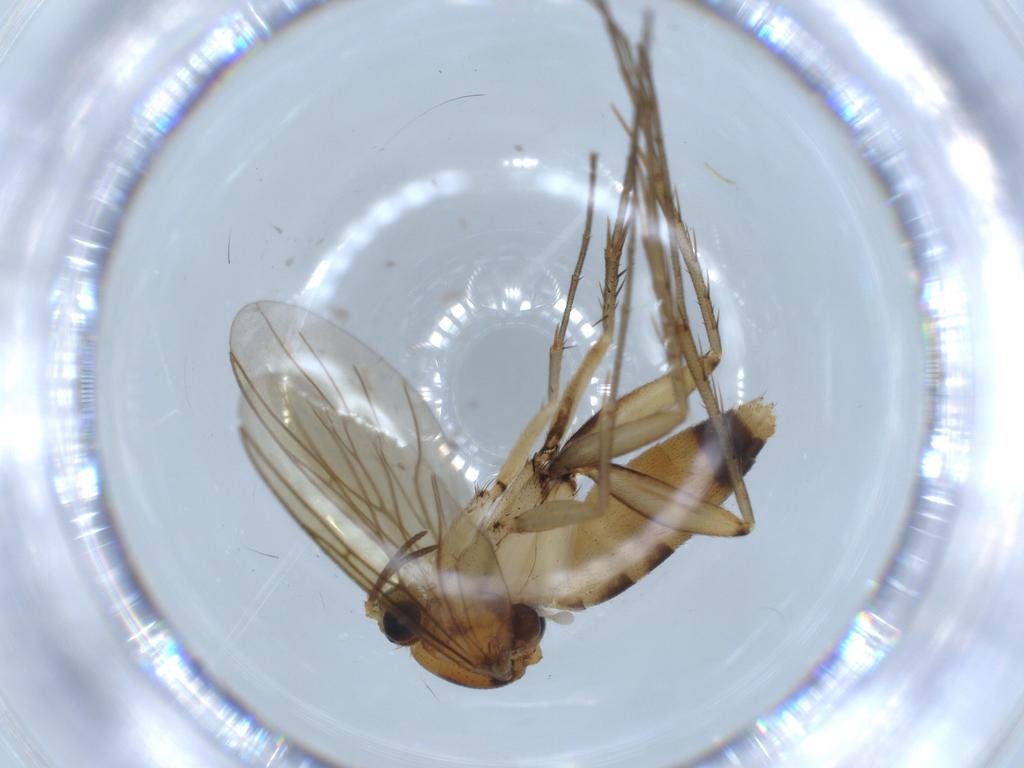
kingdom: Animalia
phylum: Arthropoda
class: Insecta
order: Diptera
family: Mycetophilidae
